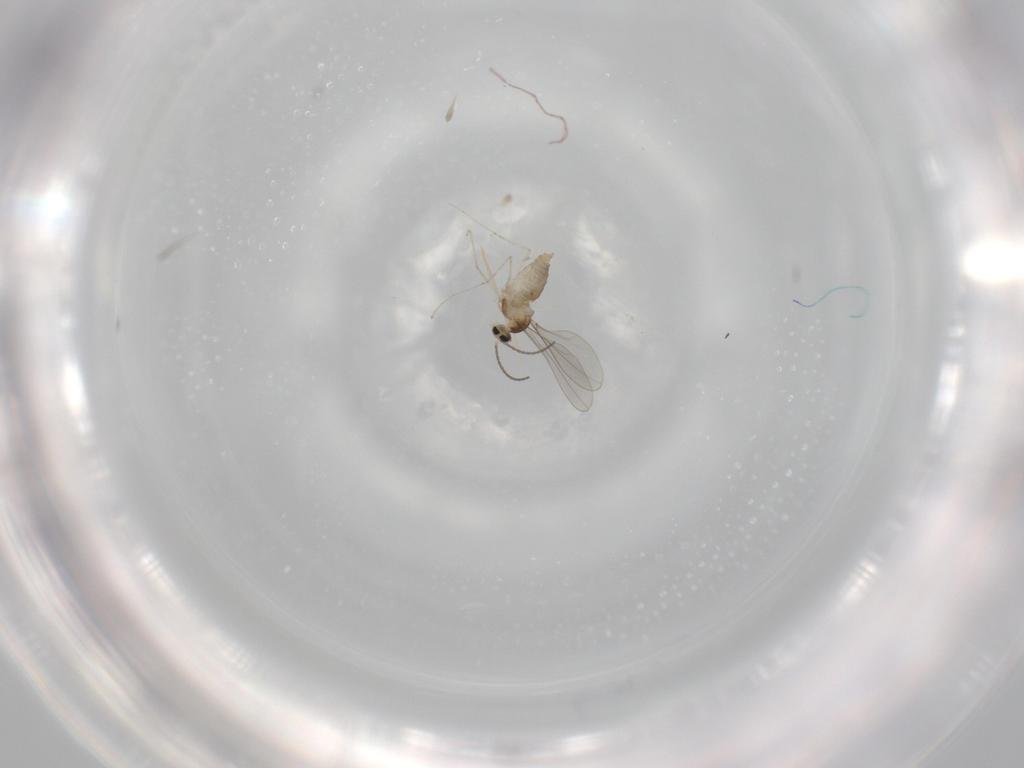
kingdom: Animalia
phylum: Arthropoda
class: Insecta
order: Diptera
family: Cecidomyiidae
